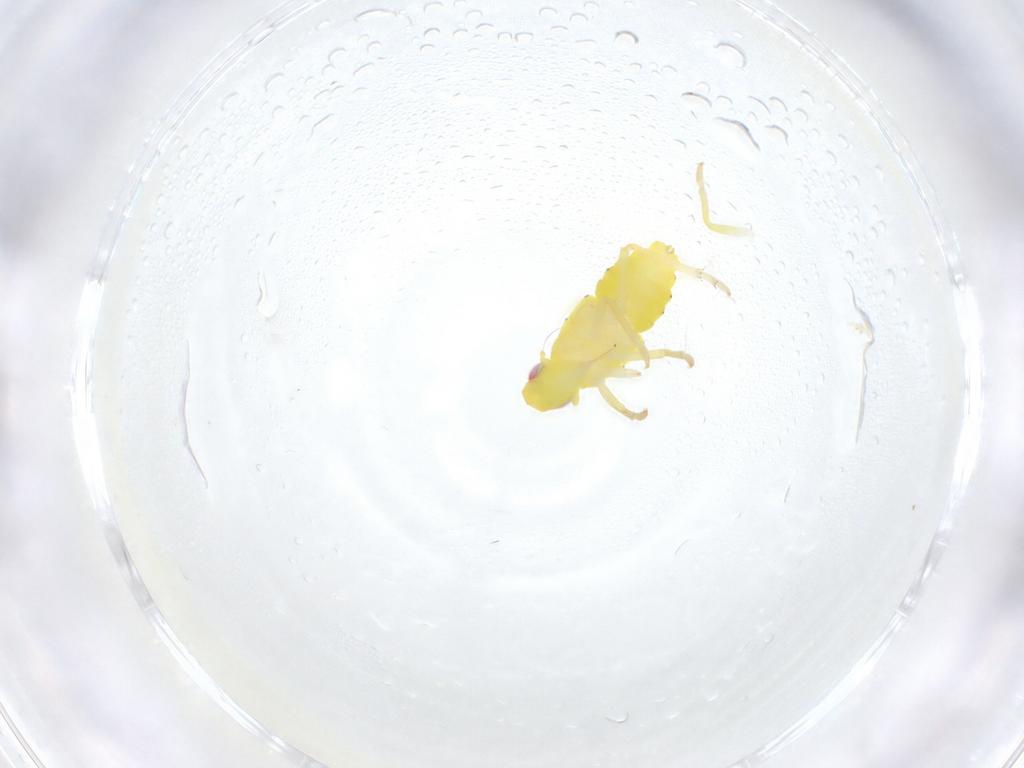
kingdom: Animalia
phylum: Arthropoda
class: Insecta
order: Hemiptera
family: Tropiduchidae
